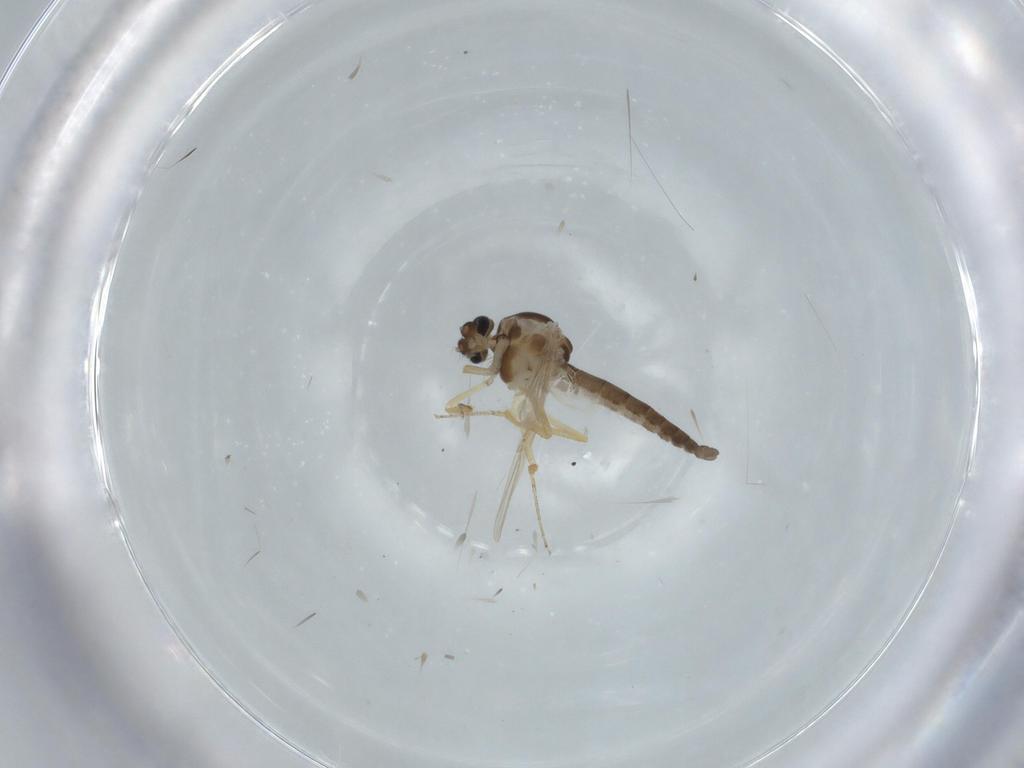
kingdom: Animalia
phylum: Arthropoda
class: Insecta
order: Diptera
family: Ceratopogonidae
